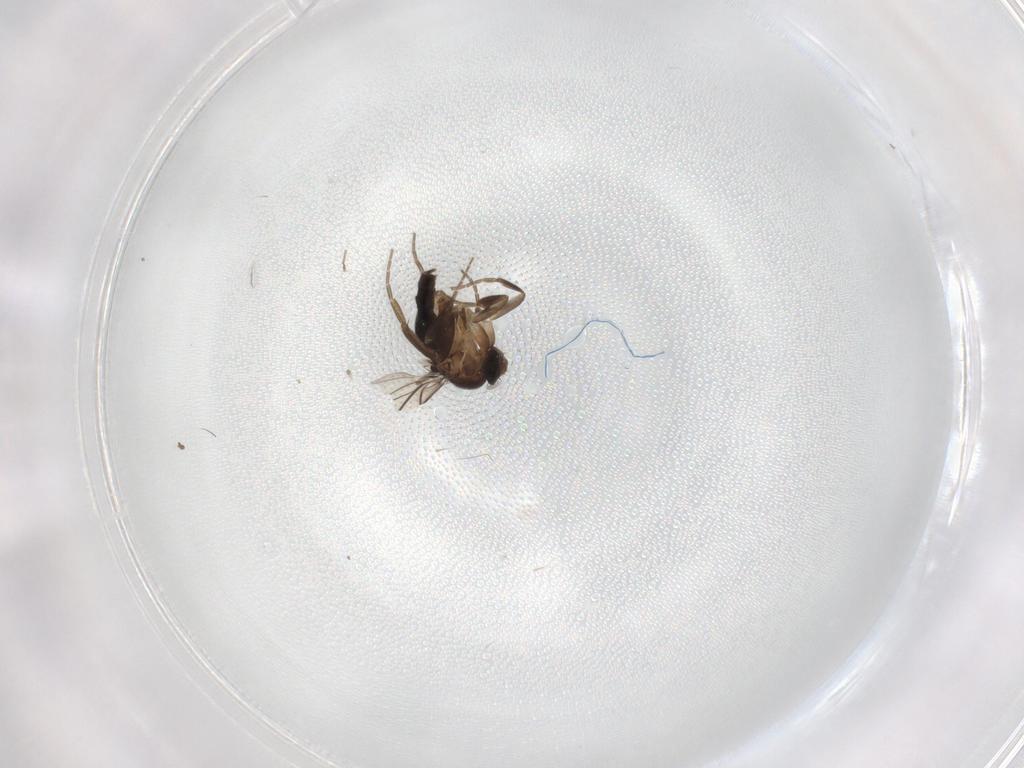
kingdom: Animalia
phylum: Arthropoda
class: Insecta
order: Diptera
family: Phoridae
